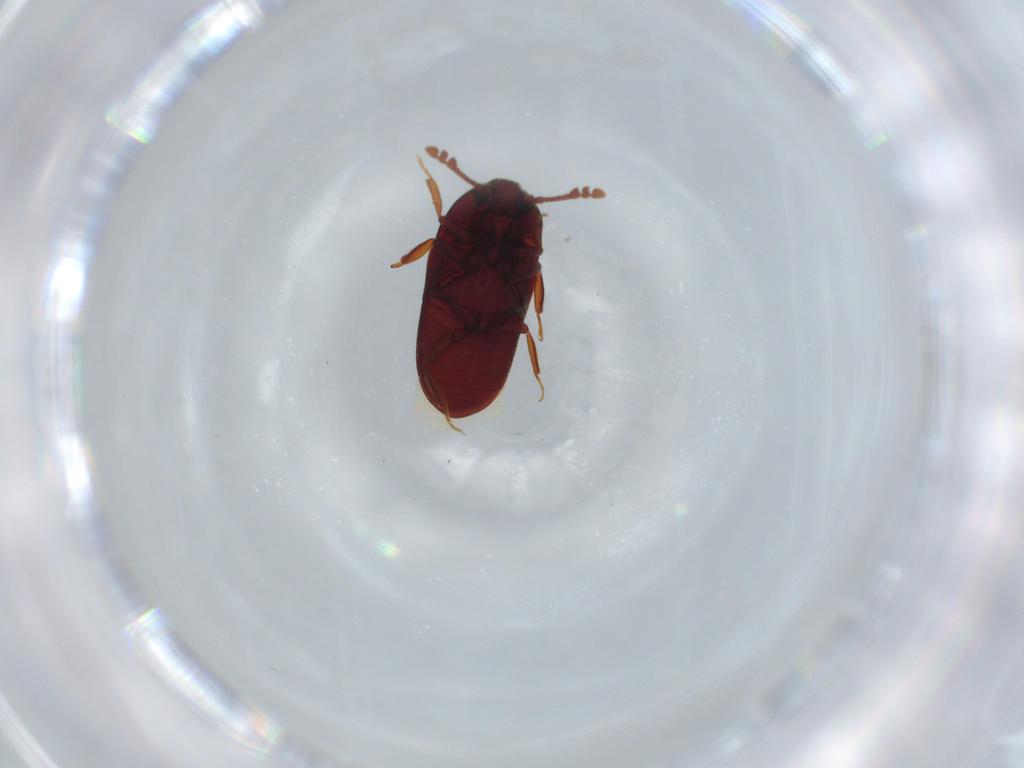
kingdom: Animalia
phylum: Arthropoda
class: Insecta
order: Coleoptera
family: Throscidae
